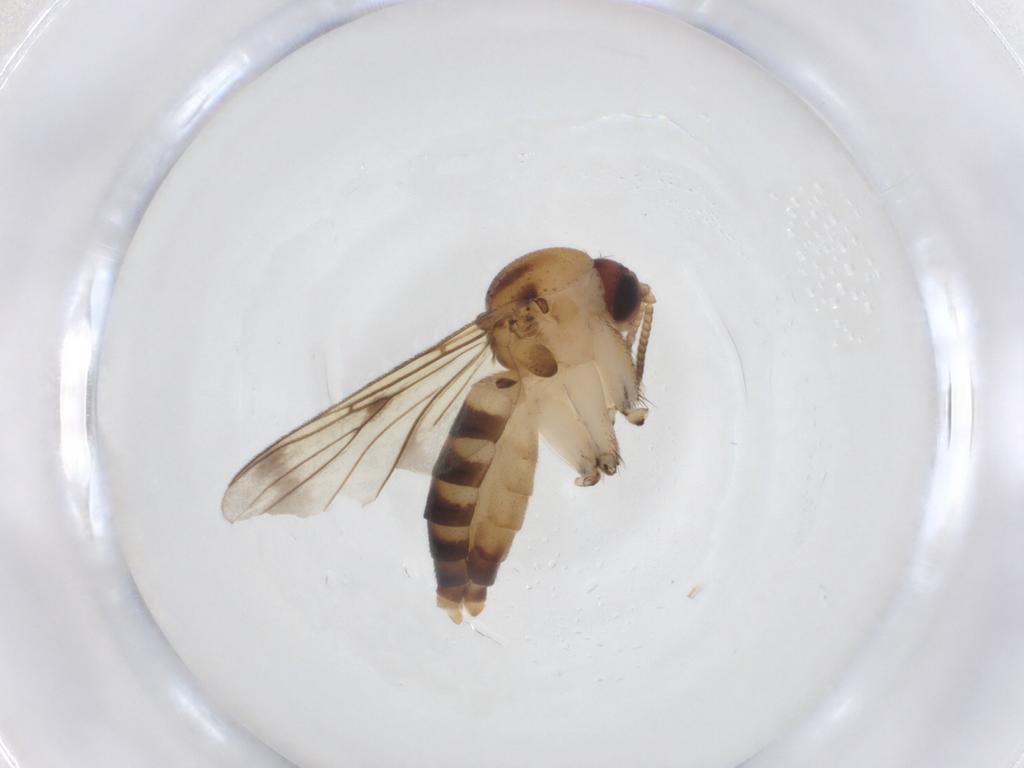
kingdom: Animalia
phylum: Arthropoda
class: Insecta
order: Diptera
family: Mycetophilidae
